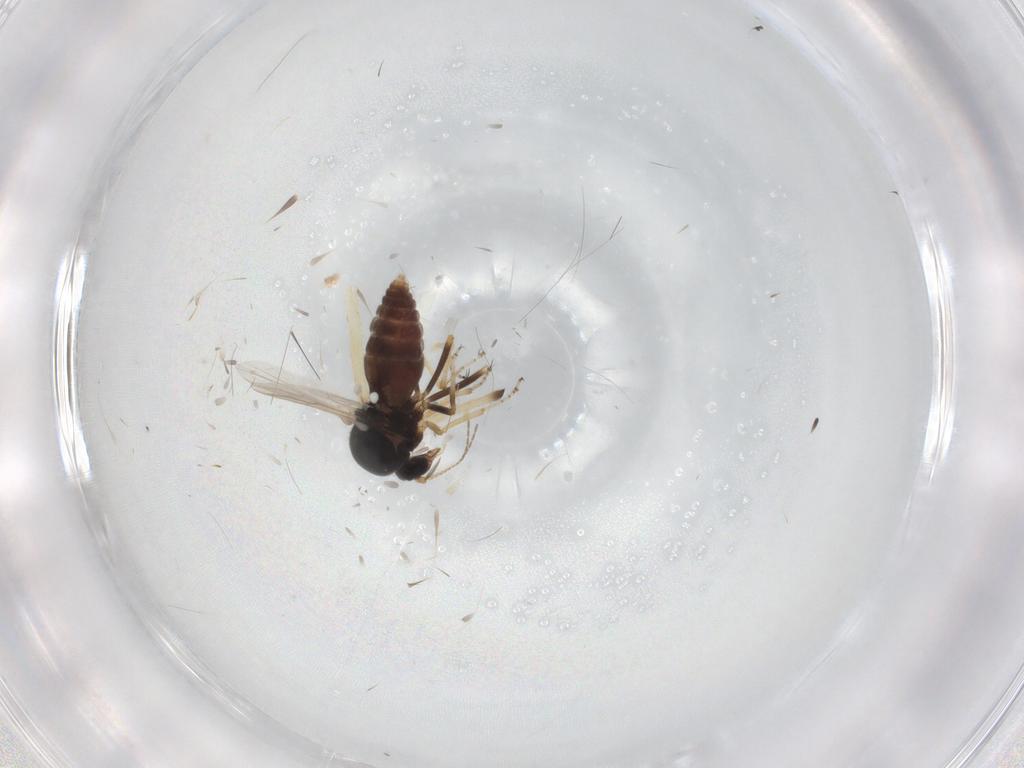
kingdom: Animalia
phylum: Arthropoda
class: Insecta
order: Diptera
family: Ceratopogonidae
